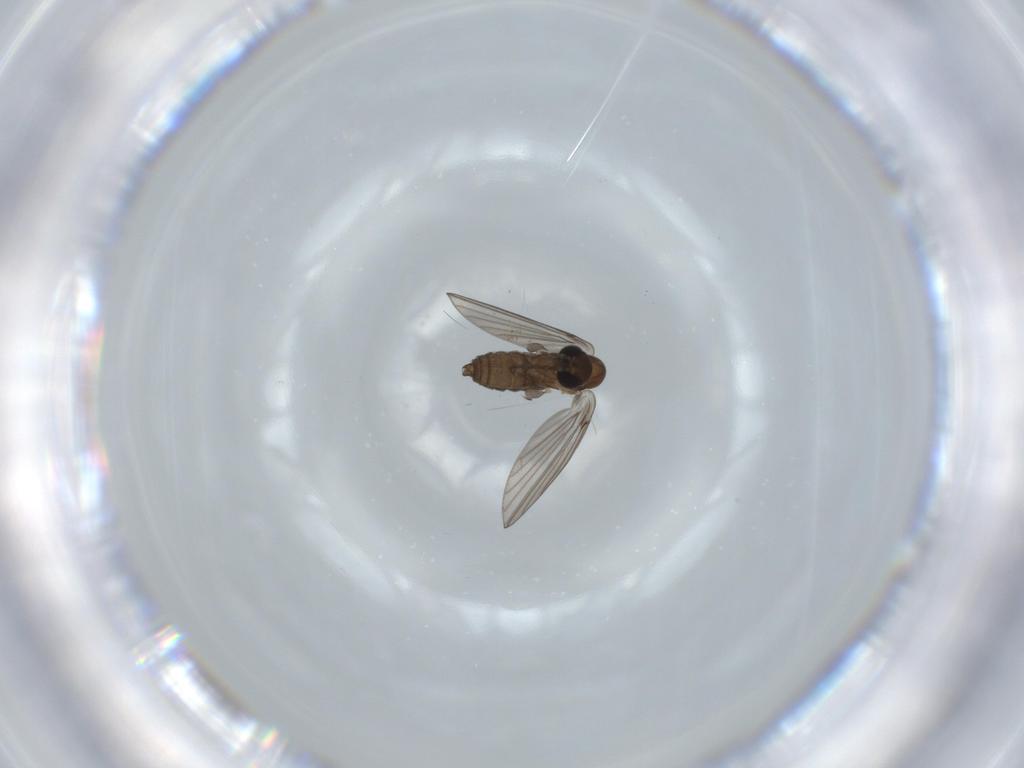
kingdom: Animalia
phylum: Arthropoda
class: Insecta
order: Diptera
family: Psychodidae
